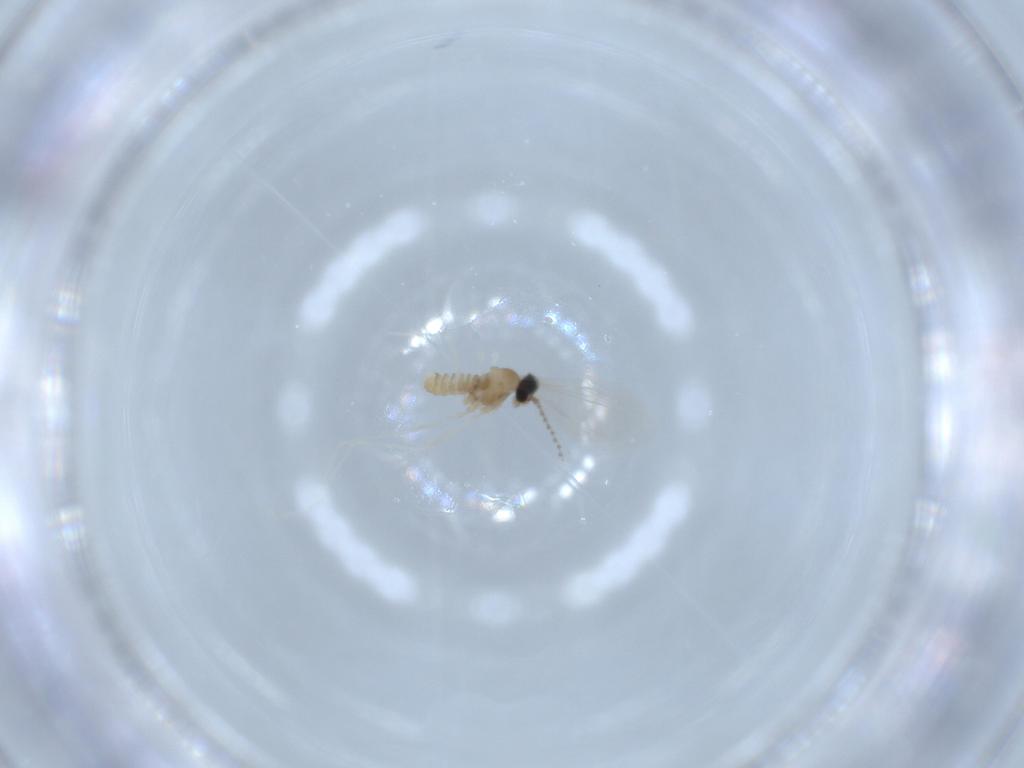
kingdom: Animalia
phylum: Arthropoda
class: Insecta
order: Diptera
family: Cecidomyiidae
